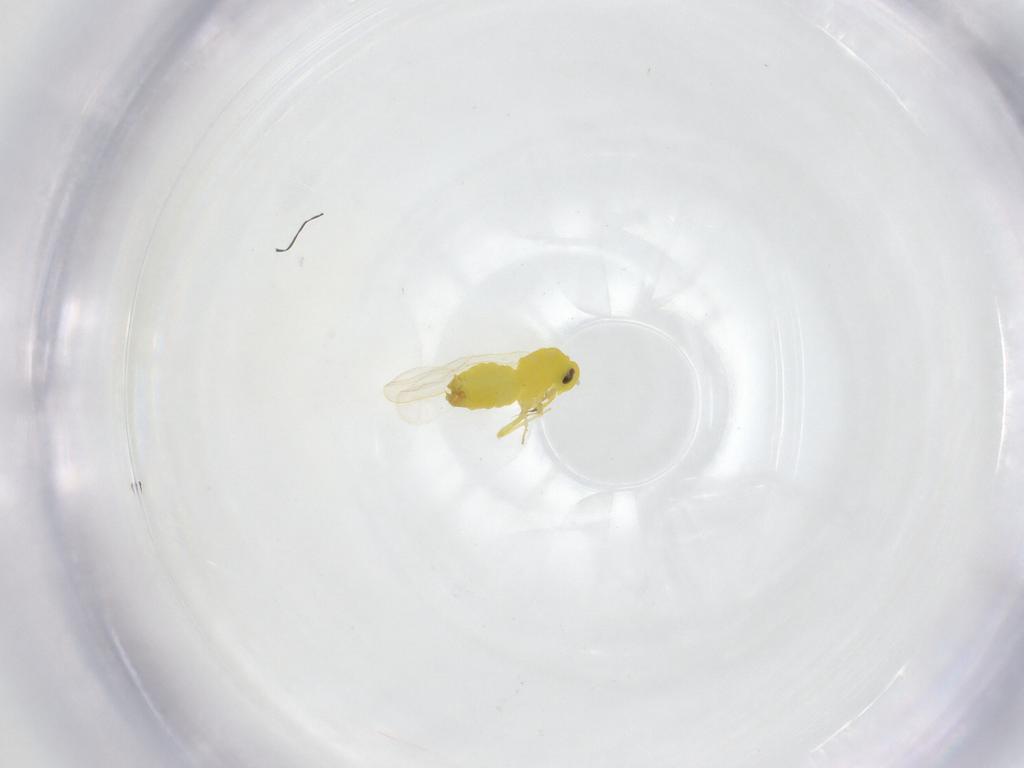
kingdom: Animalia
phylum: Arthropoda
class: Insecta
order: Hemiptera
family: Aleyrodidae
